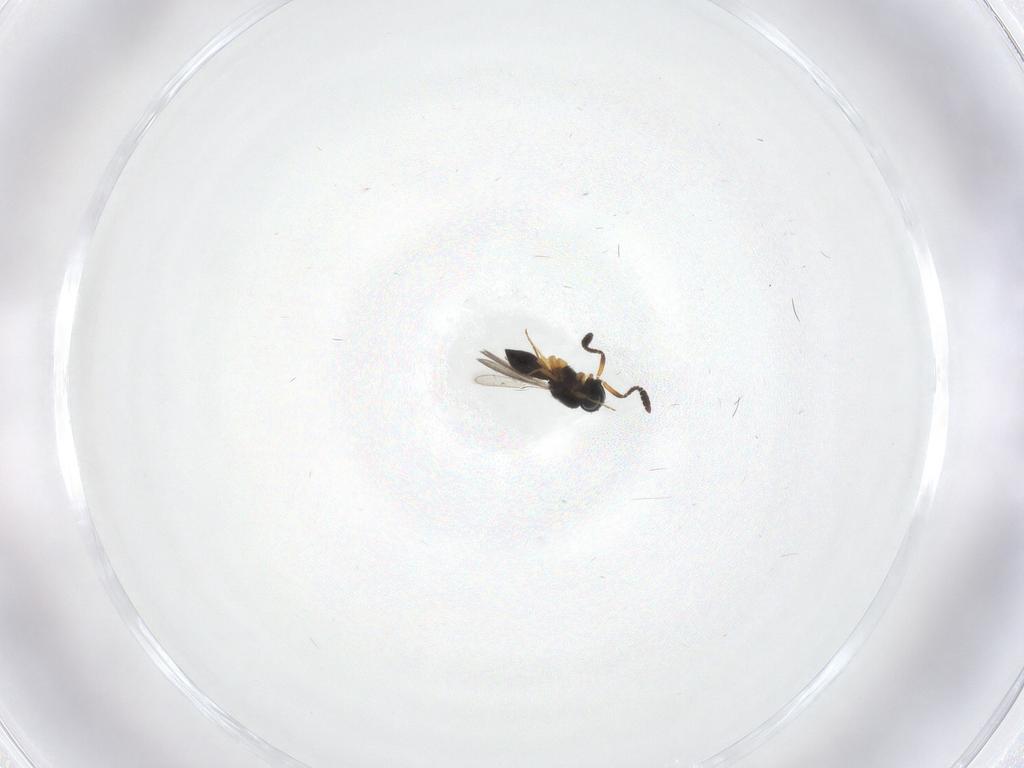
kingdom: Animalia
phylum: Arthropoda
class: Insecta
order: Hymenoptera
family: Scelionidae
